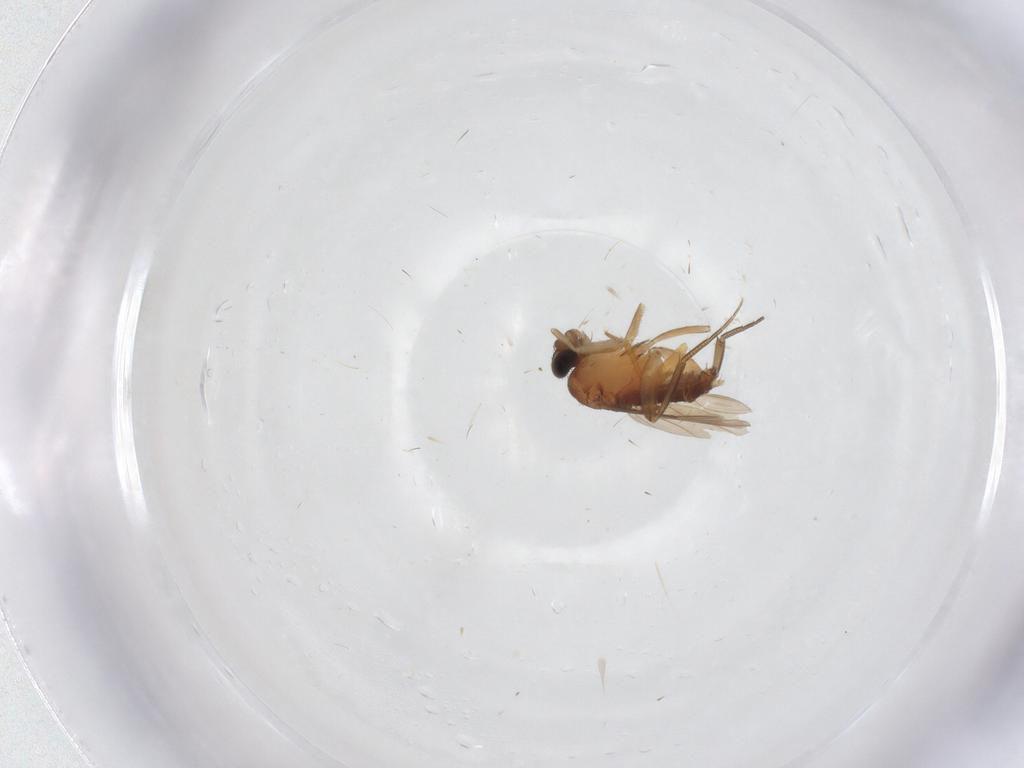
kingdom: Animalia
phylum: Arthropoda
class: Insecta
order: Diptera
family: Phoridae
